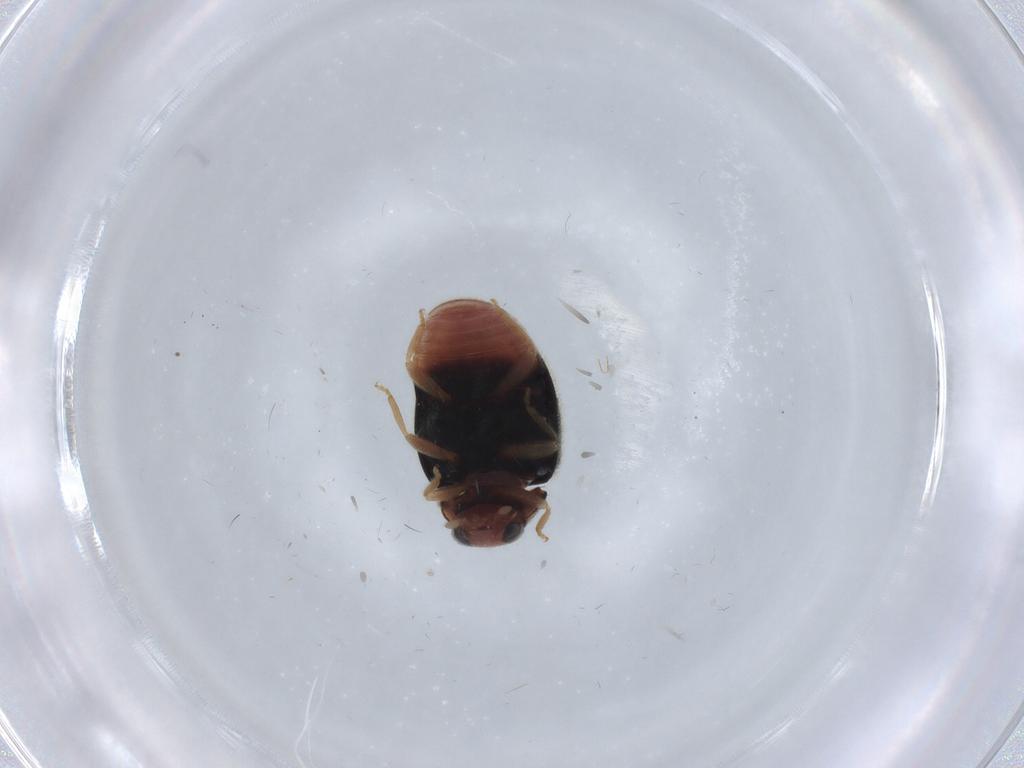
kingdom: Animalia
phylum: Arthropoda
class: Insecta
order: Coleoptera
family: Coccinellidae
